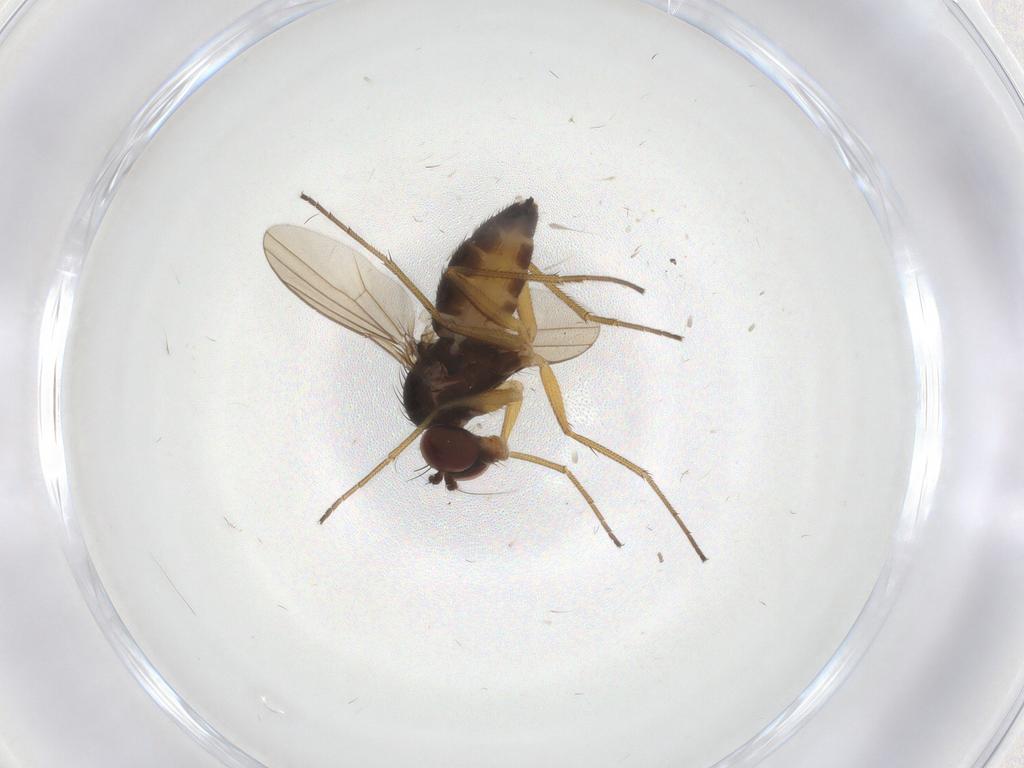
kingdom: Animalia
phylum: Arthropoda
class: Insecta
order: Diptera
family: Dolichopodidae
